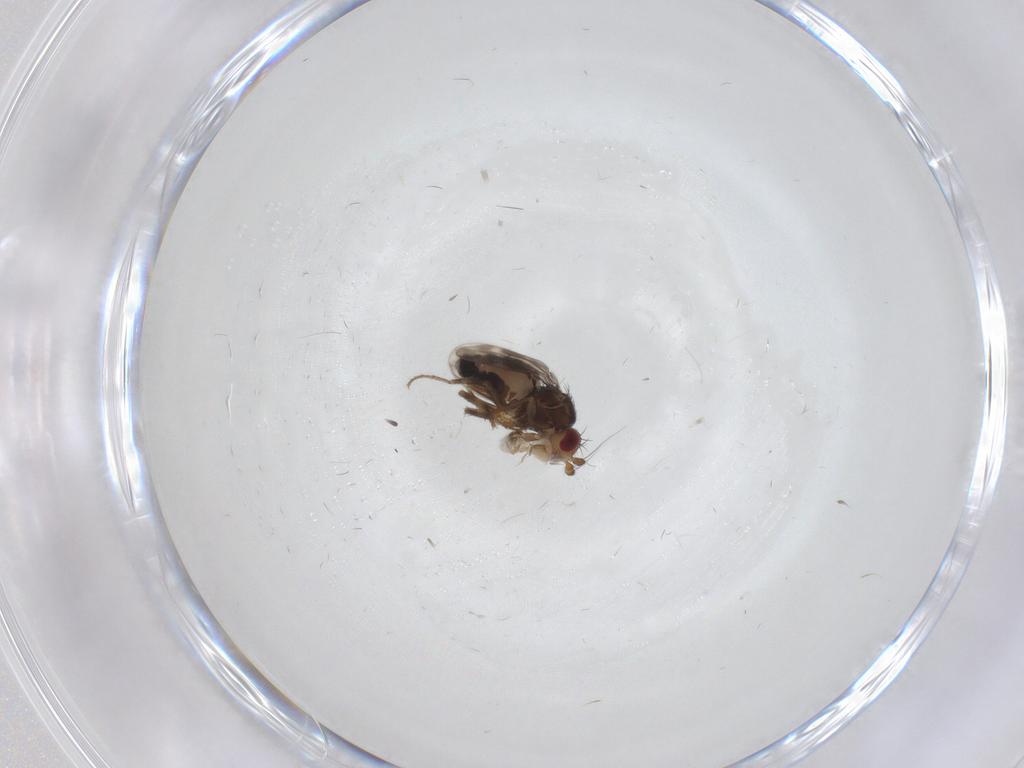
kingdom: Animalia
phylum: Arthropoda
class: Insecta
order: Diptera
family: Sphaeroceridae
